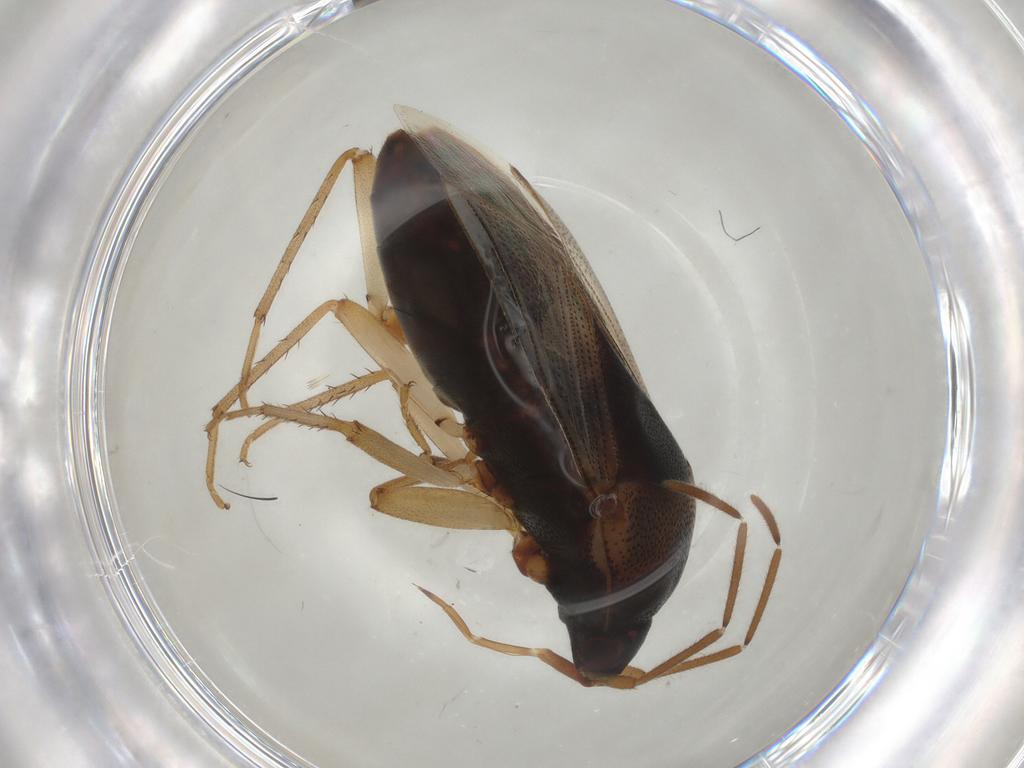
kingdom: Animalia
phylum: Arthropoda
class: Insecta
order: Hemiptera
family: Rhyparochromidae
